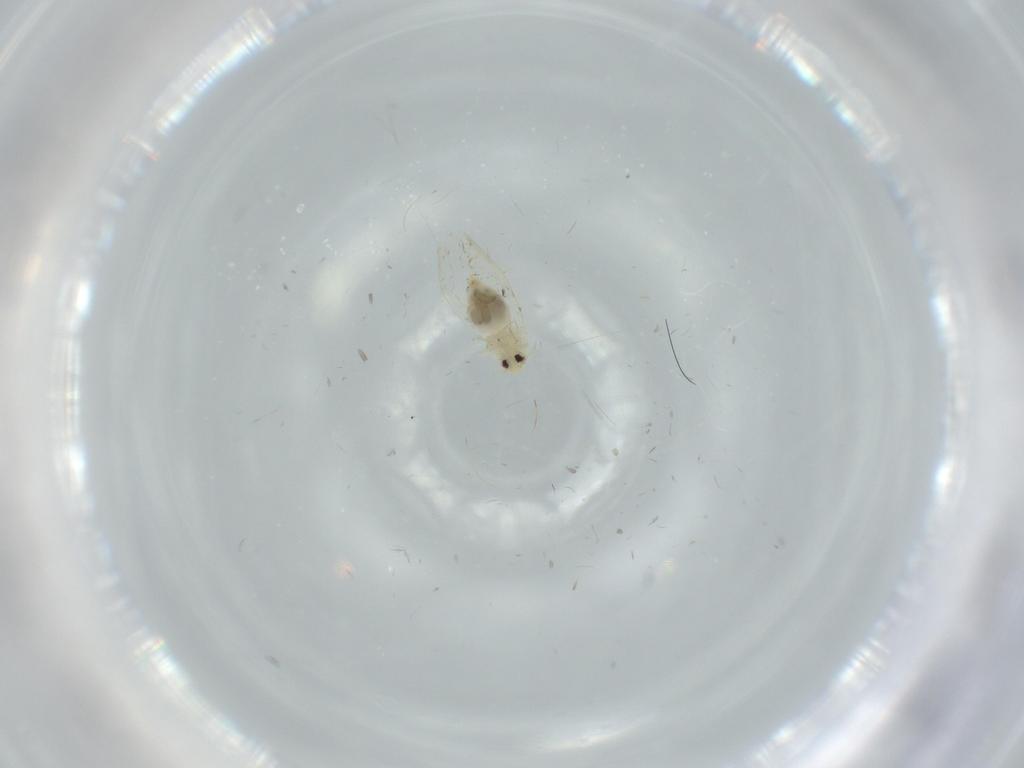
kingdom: Animalia
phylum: Arthropoda
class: Insecta
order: Hemiptera
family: Aleyrodidae
